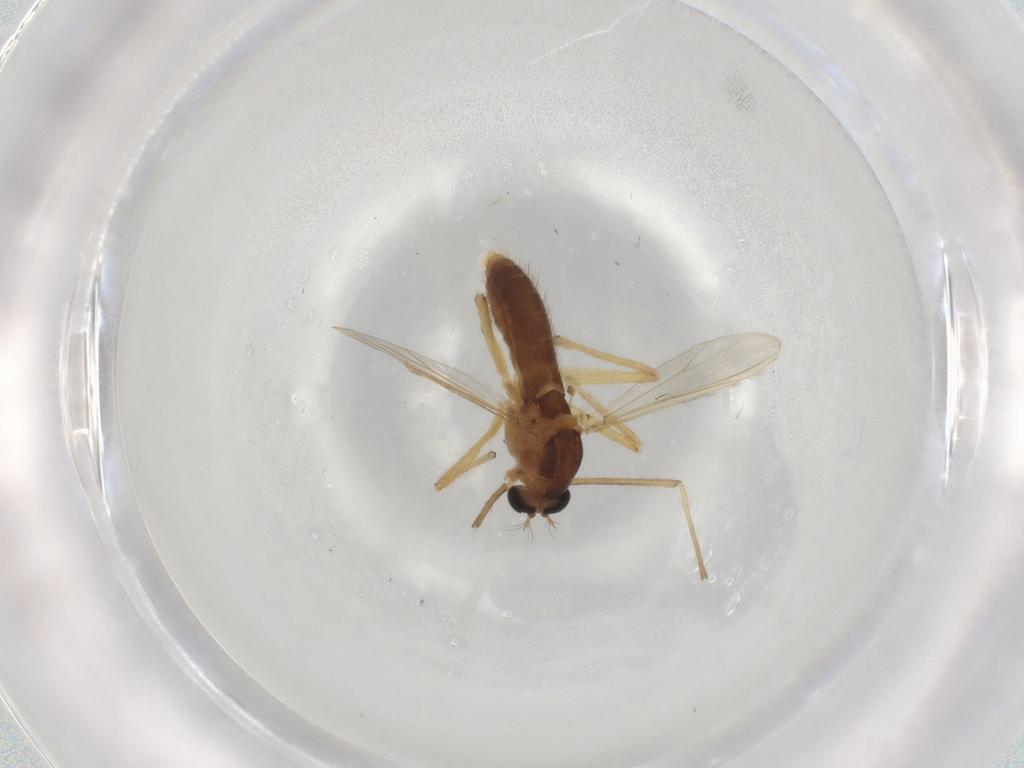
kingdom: Animalia
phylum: Arthropoda
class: Insecta
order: Diptera
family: Chironomidae
